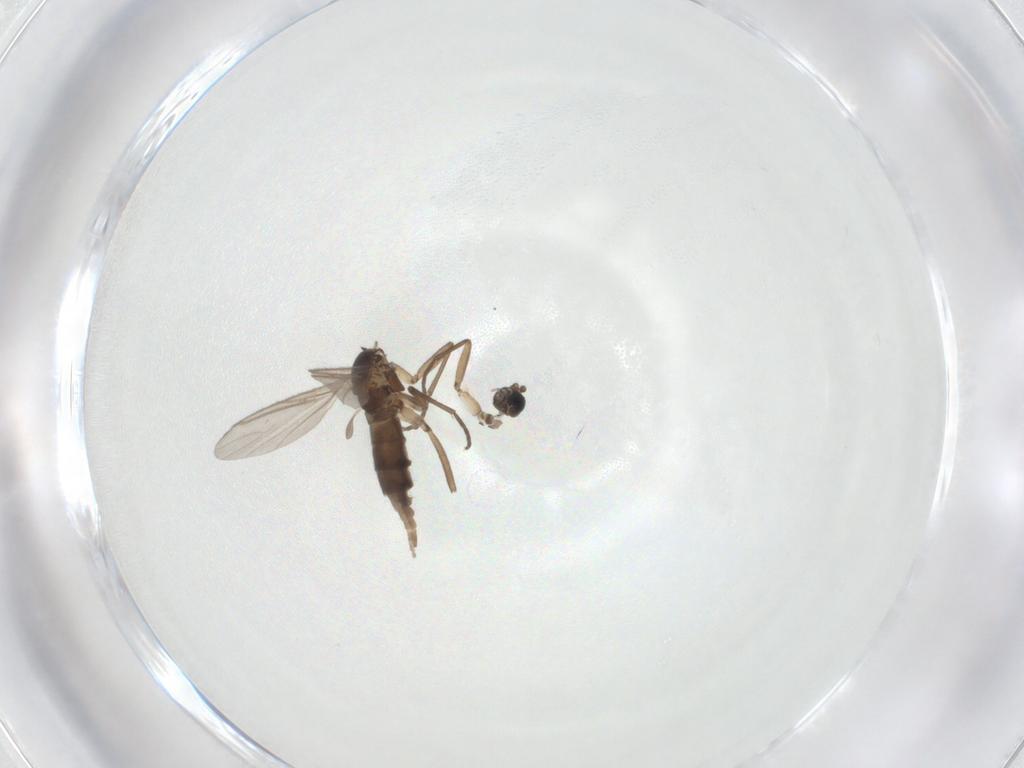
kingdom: Animalia
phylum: Arthropoda
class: Insecta
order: Diptera
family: Sciaridae
